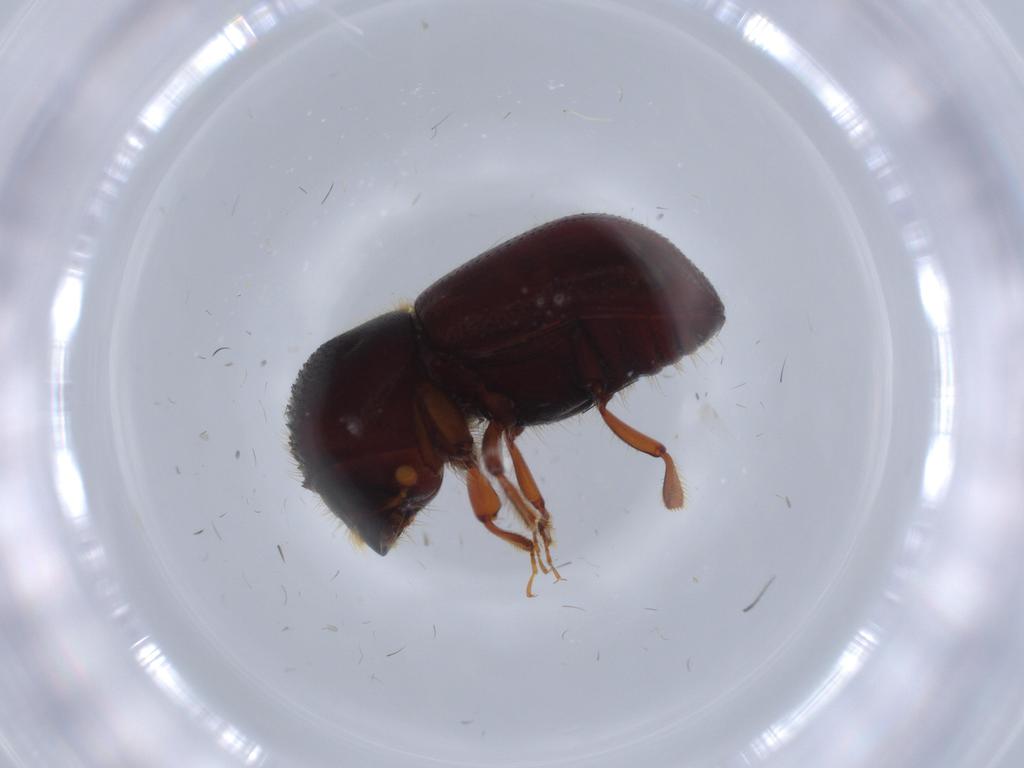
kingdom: Animalia
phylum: Arthropoda
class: Insecta
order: Coleoptera
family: Curculionidae
